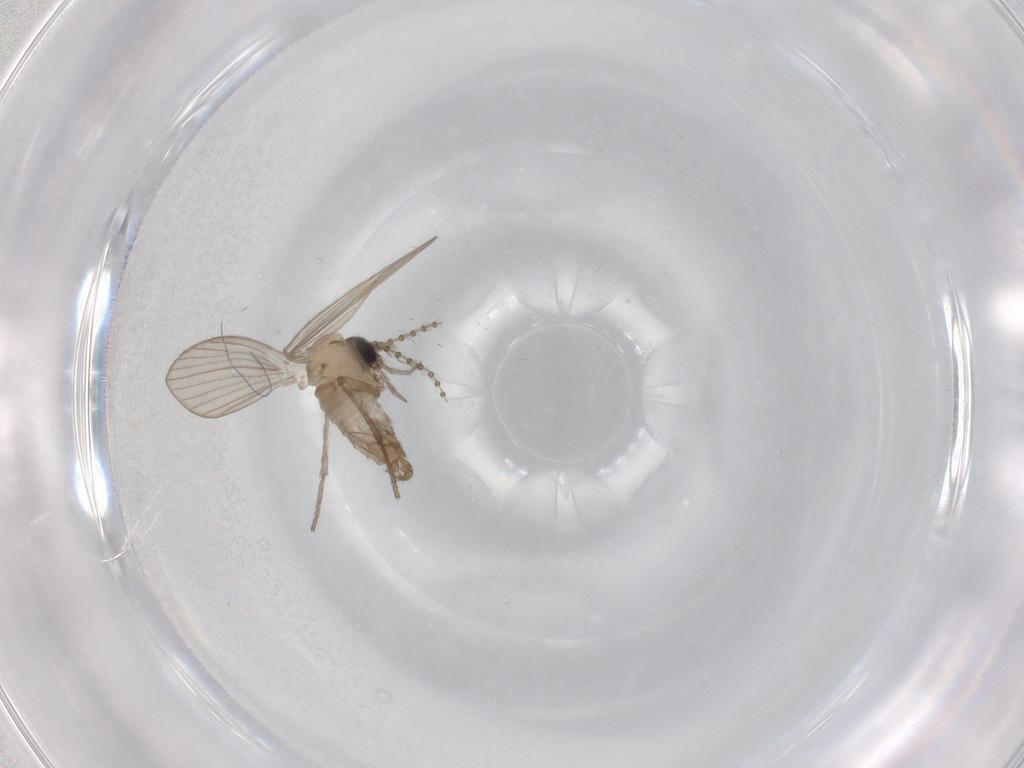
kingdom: Animalia
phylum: Arthropoda
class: Insecta
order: Diptera
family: Psychodidae
